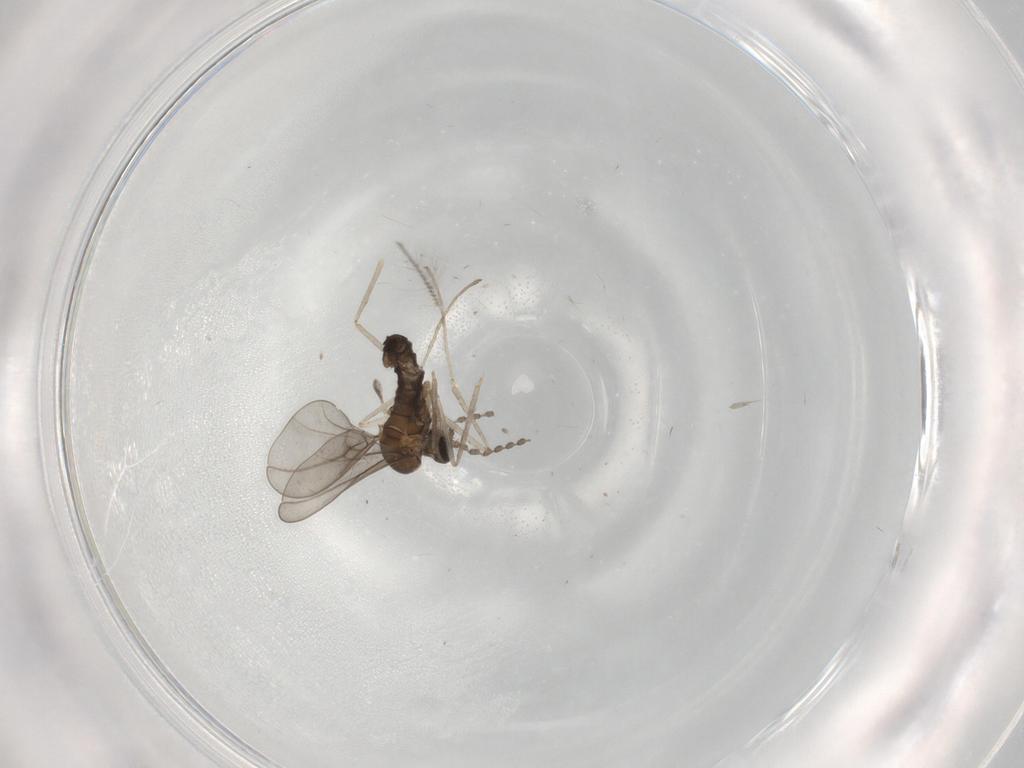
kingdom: Animalia
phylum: Arthropoda
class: Insecta
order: Diptera
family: Chironomidae
